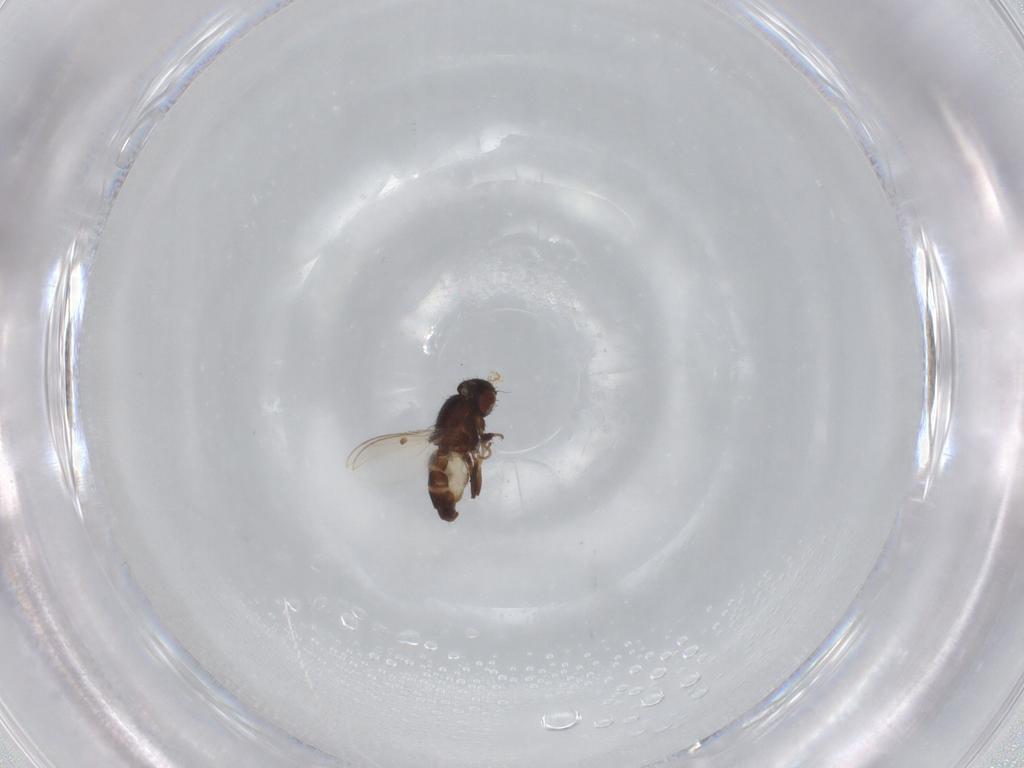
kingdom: Animalia
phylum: Arthropoda
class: Insecta
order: Diptera
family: Drosophilidae
